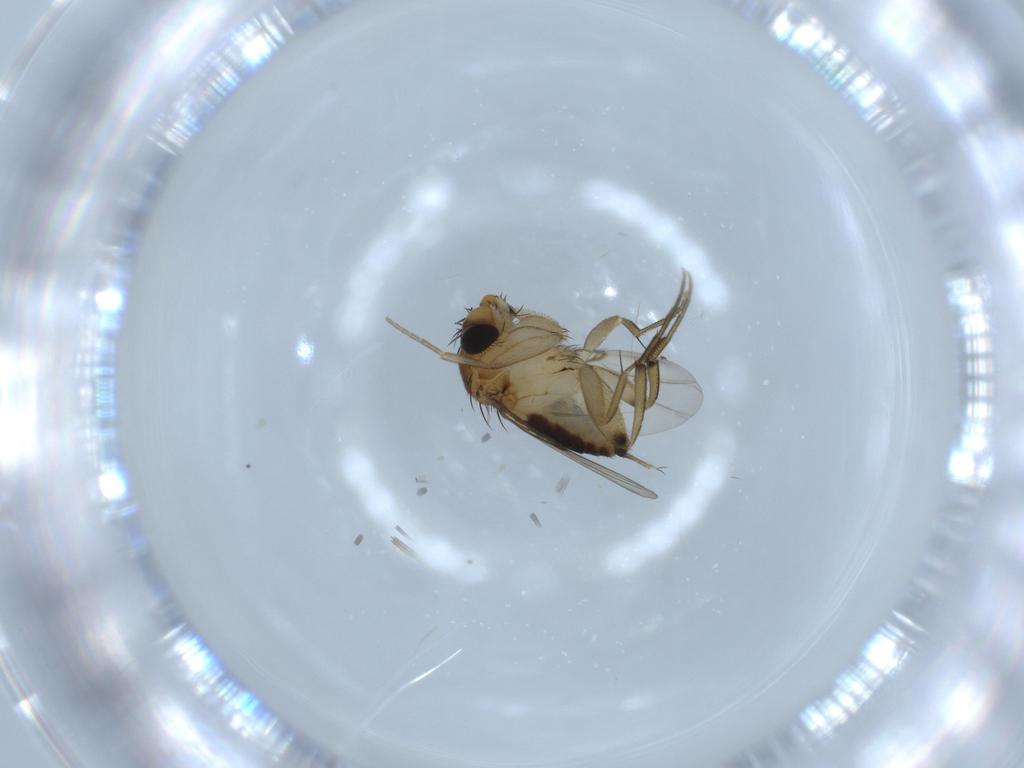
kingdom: Animalia
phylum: Arthropoda
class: Insecta
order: Diptera
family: Phoridae
